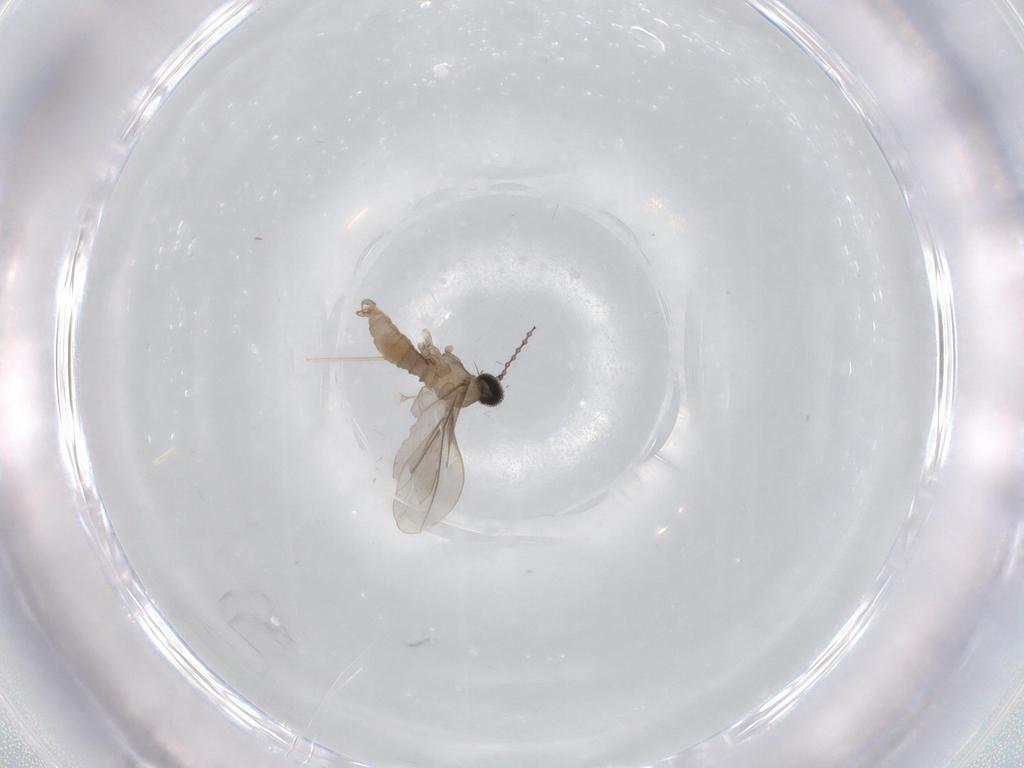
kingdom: Animalia
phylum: Arthropoda
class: Insecta
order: Diptera
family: Cecidomyiidae
